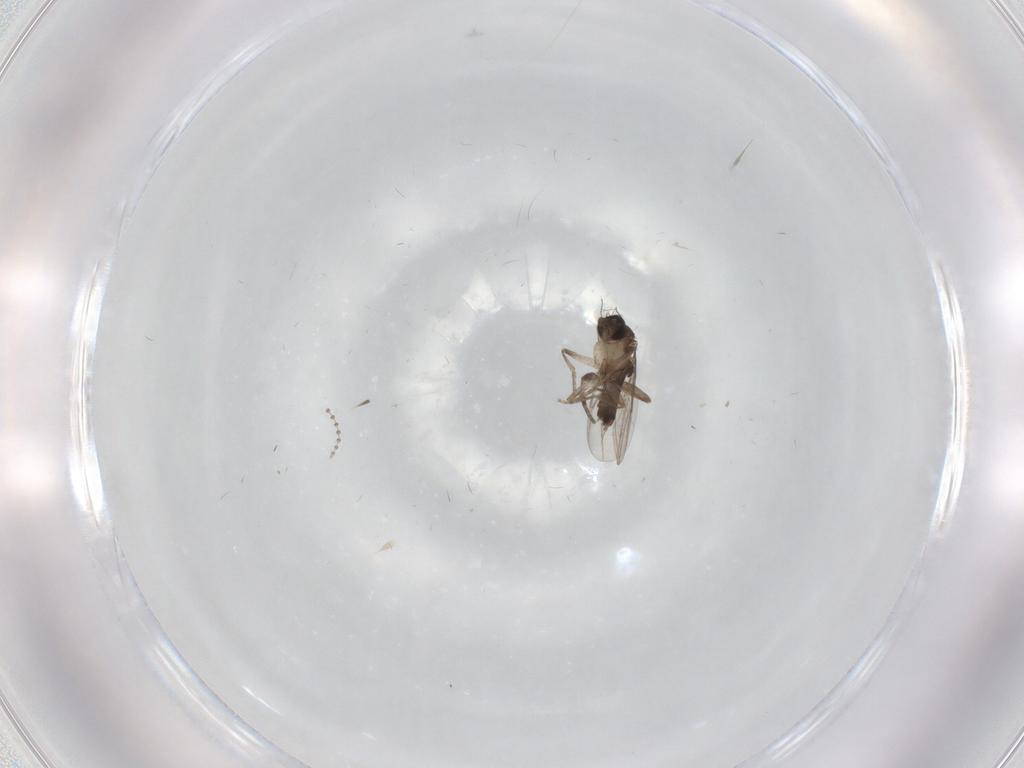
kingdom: Animalia
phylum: Arthropoda
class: Insecta
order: Diptera
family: Phoridae
